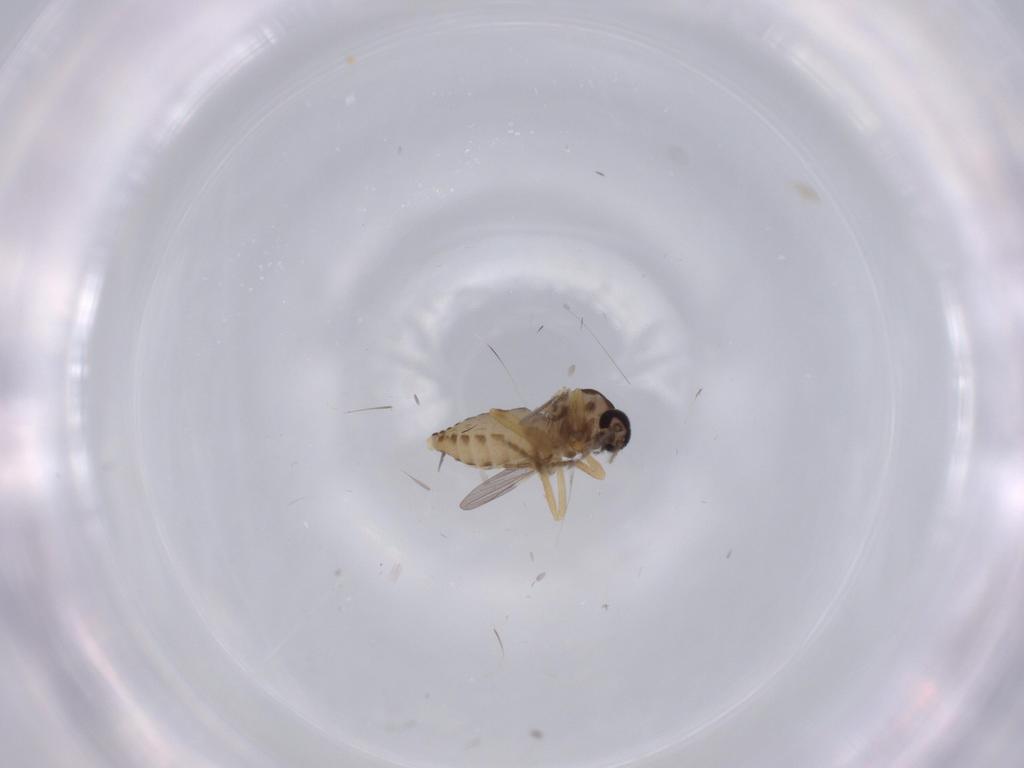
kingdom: Animalia
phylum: Arthropoda
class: Insecta
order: Diptera
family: Ceratopogonidae
